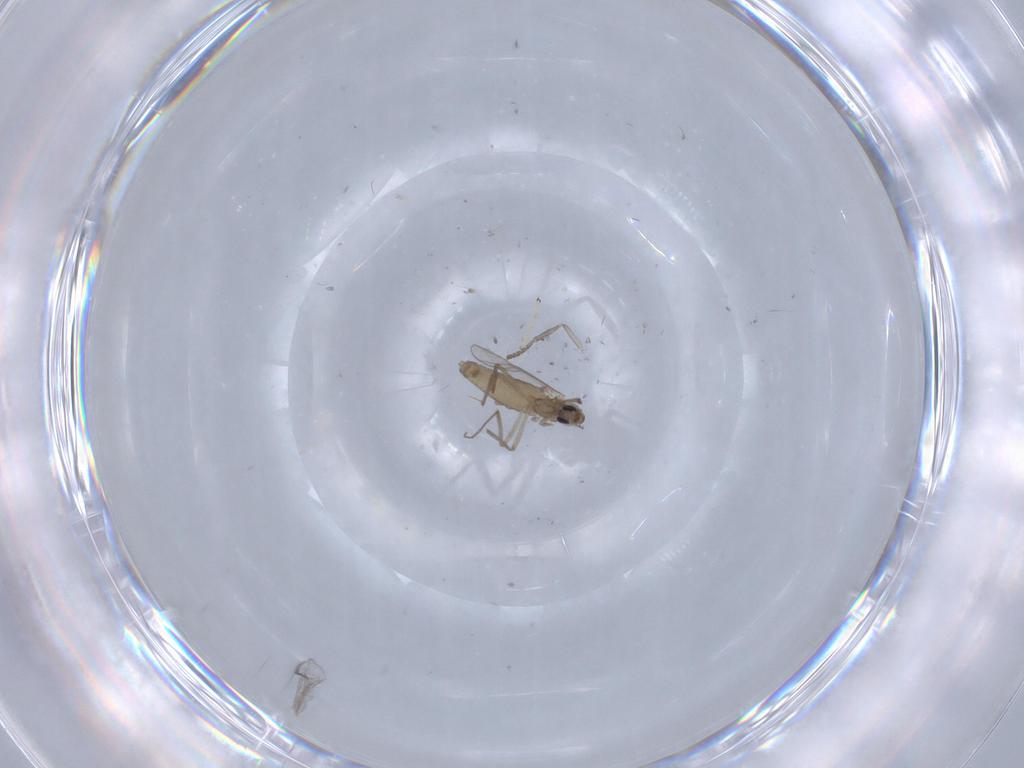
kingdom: Animalia
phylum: Arthropoda
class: Insecta
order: Diptera
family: Chironomidae
